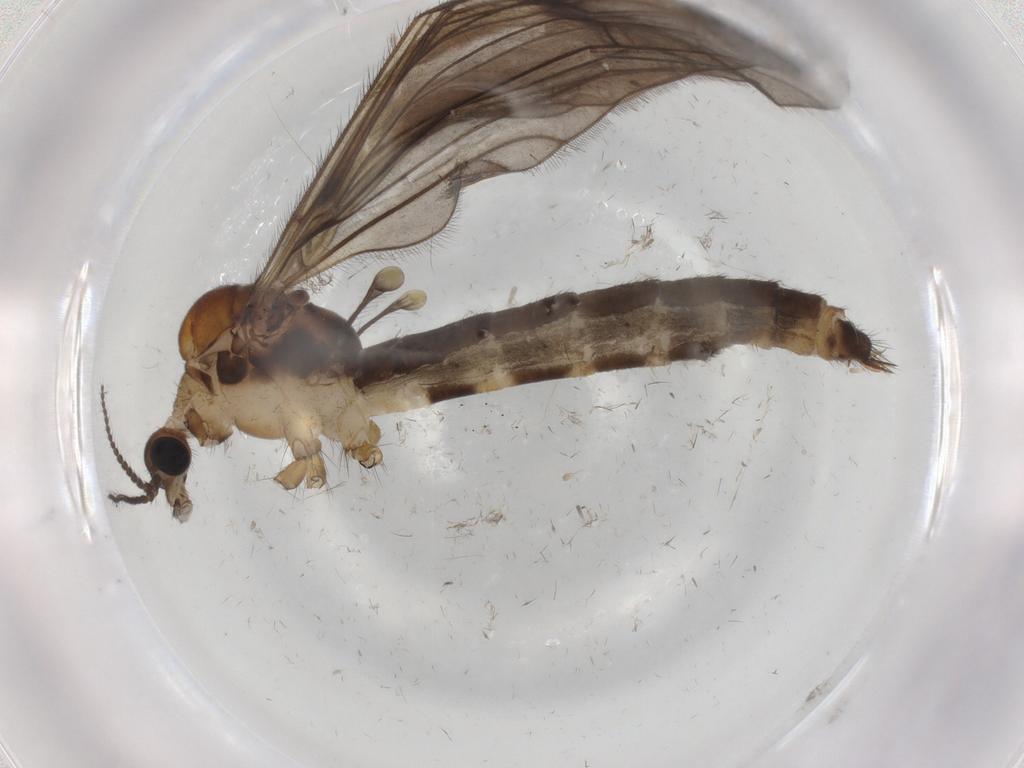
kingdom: Animalia
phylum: Arthropoda
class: Insecta
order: Diptera
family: Limoniidae
